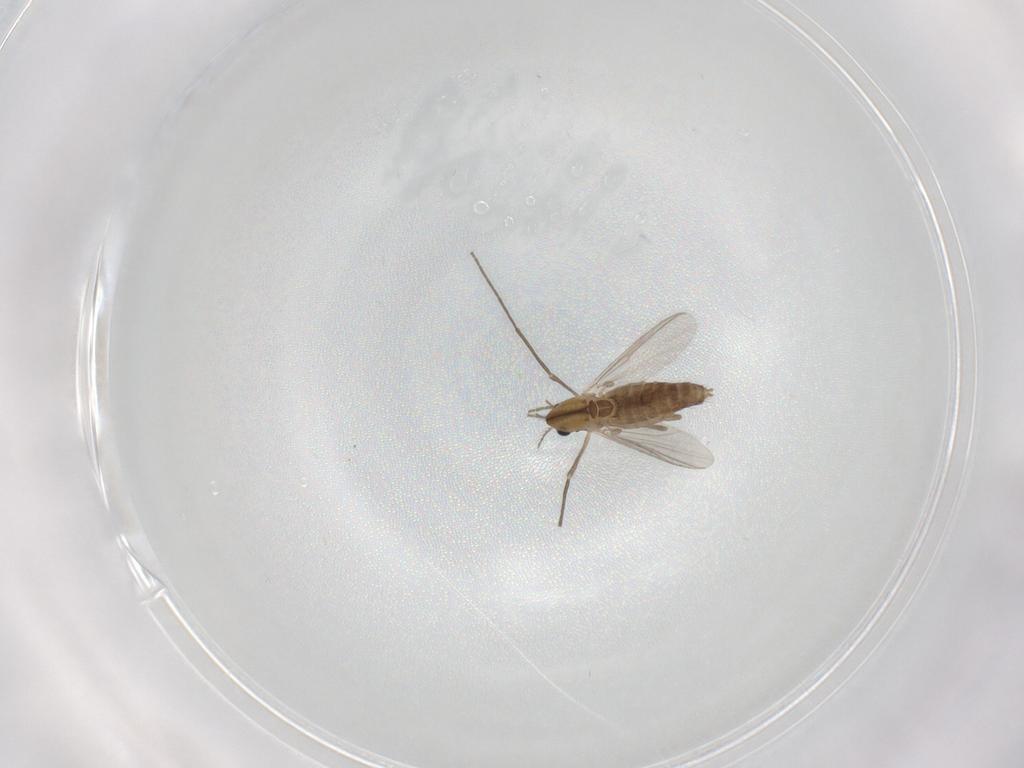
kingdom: Animalia
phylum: Arthropoda
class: Insecta
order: Diptera
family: Chironomidae
